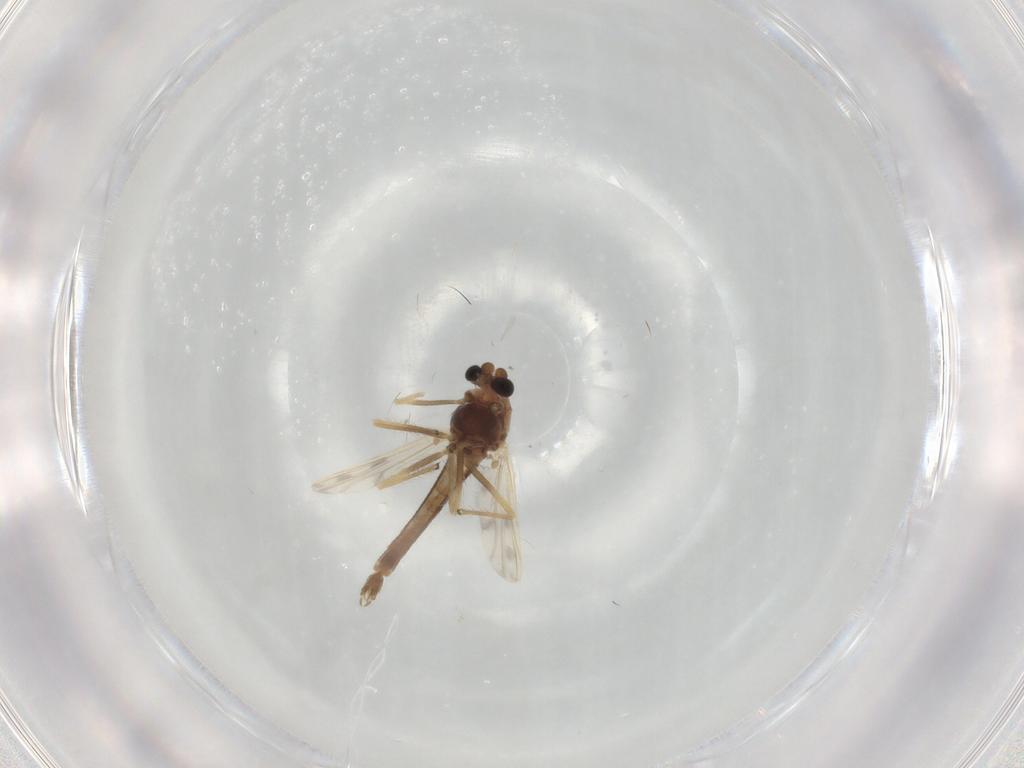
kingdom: Animalia
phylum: Arthropoda
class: Insecta
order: Diptera
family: Chironomidae
